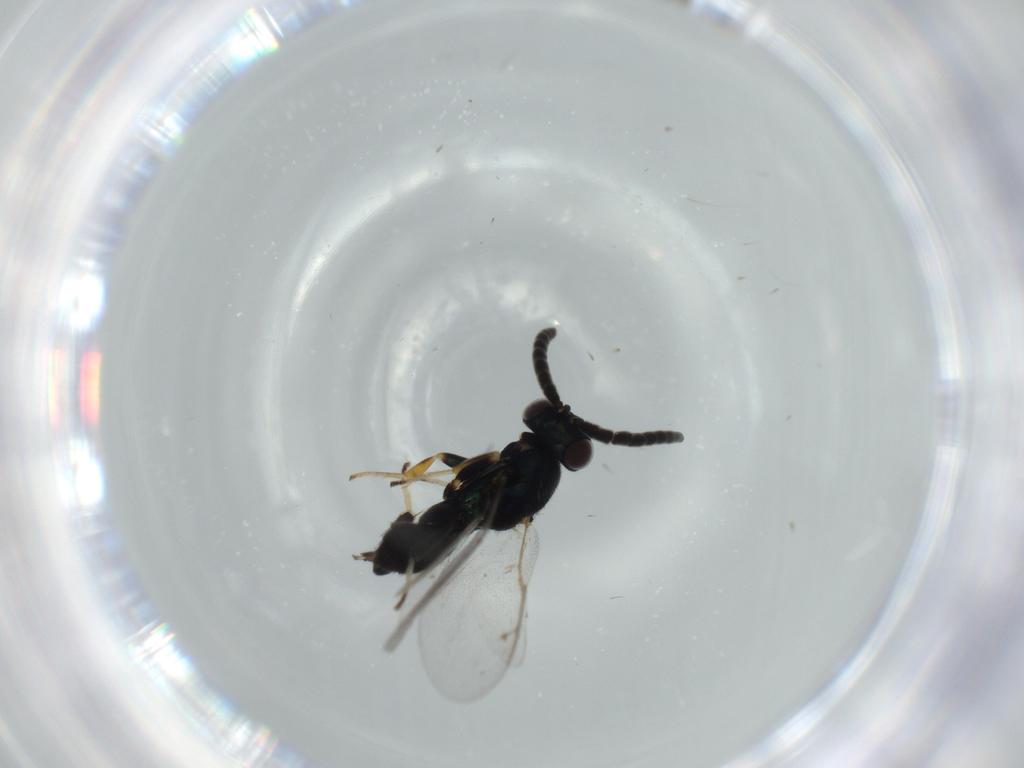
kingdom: Animalia
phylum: Arthropoda
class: Insecta
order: Hymenoptera
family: Eupelmidae
